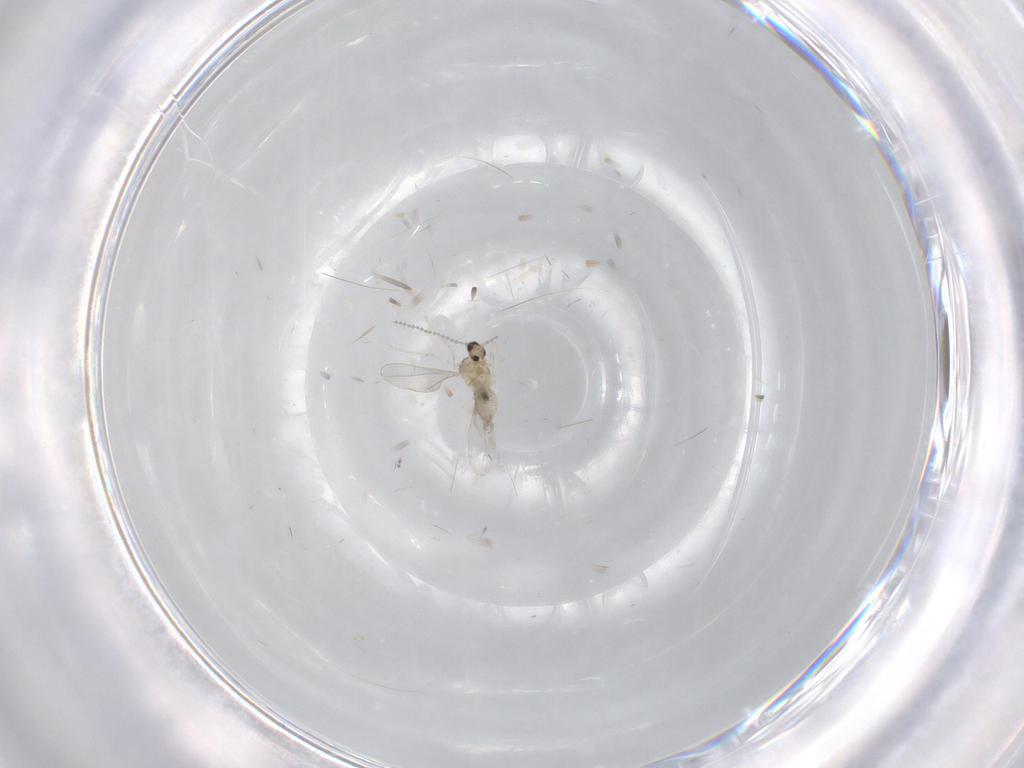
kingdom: Animalia
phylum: Arthropoda
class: Insecta
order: Diptera
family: Cecidomyiidae
